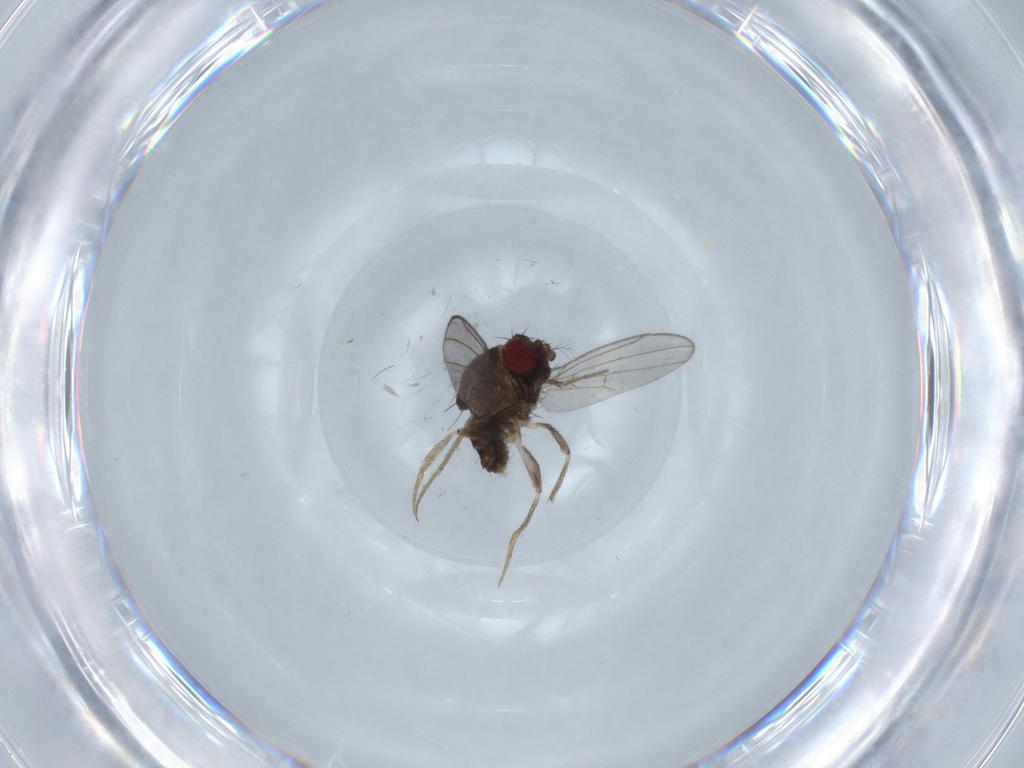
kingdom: Animalia
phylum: Arthropoda
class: Insecta
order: Diptera
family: Drosophilidae
